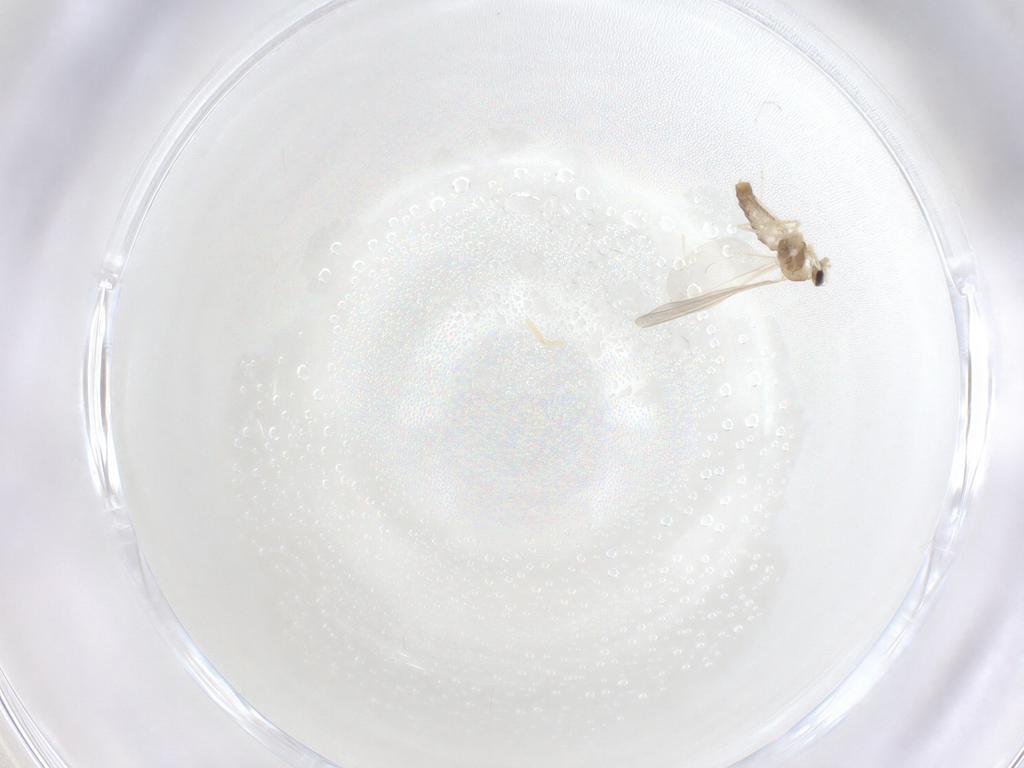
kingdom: Animalia
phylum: Arthropoda
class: Insecta
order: Diptera
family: Cecidomyiidae
